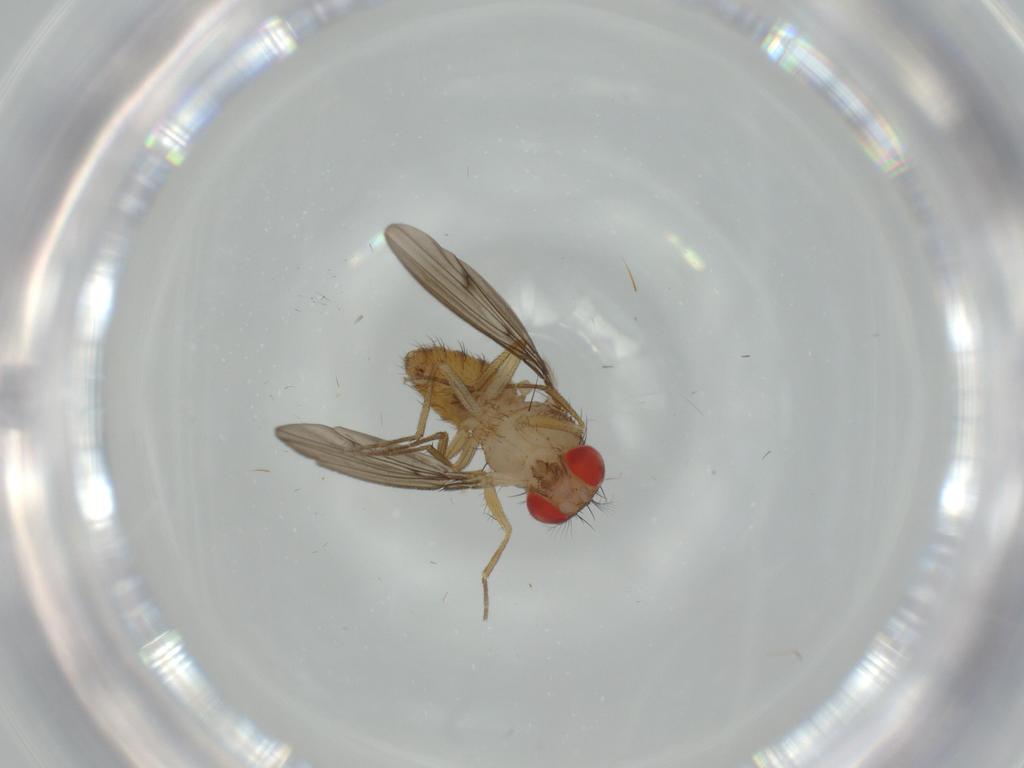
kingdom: Animalia
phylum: Arthropoda
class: Insecta
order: Diptera
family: Drosophilidae
